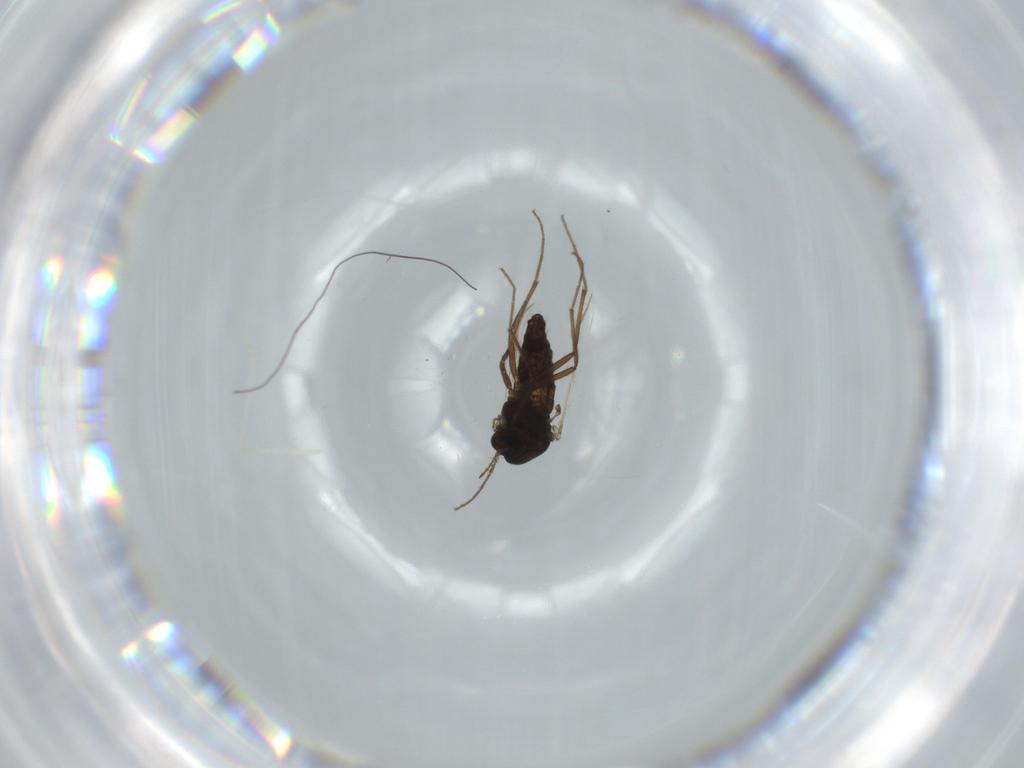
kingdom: Animalia
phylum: Arthropoda
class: Insecta
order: Diptera
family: Cecidomyiidae
